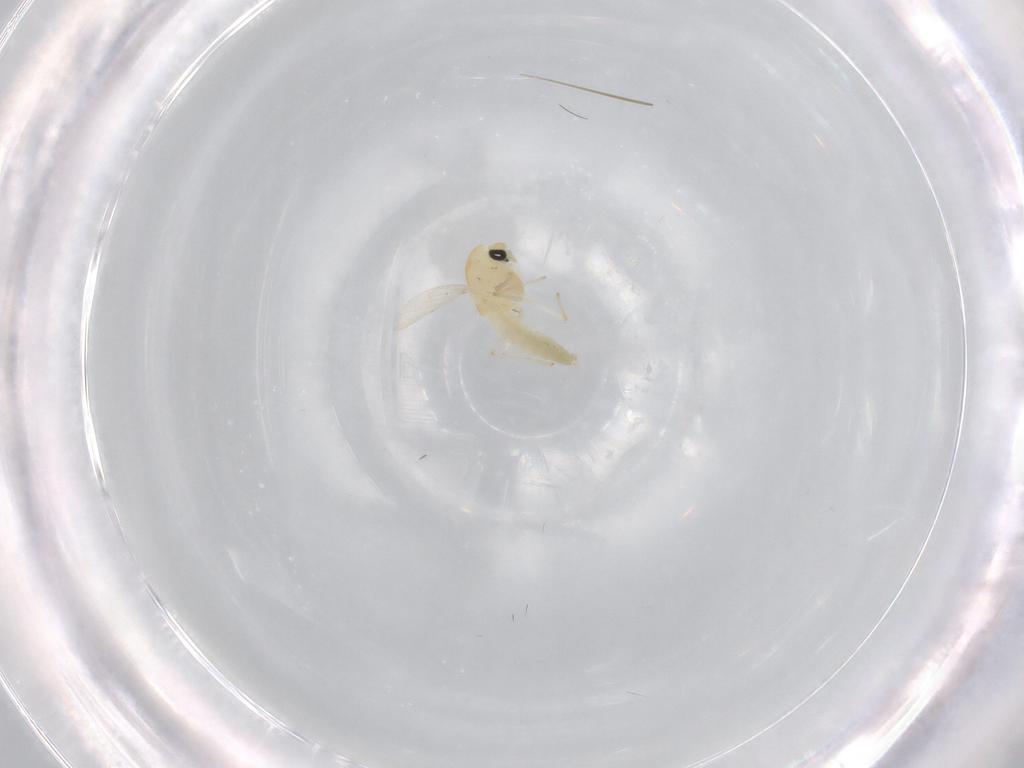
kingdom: Animalia
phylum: Arthropoda
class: Insecta
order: Diptera
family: Chironomidae
